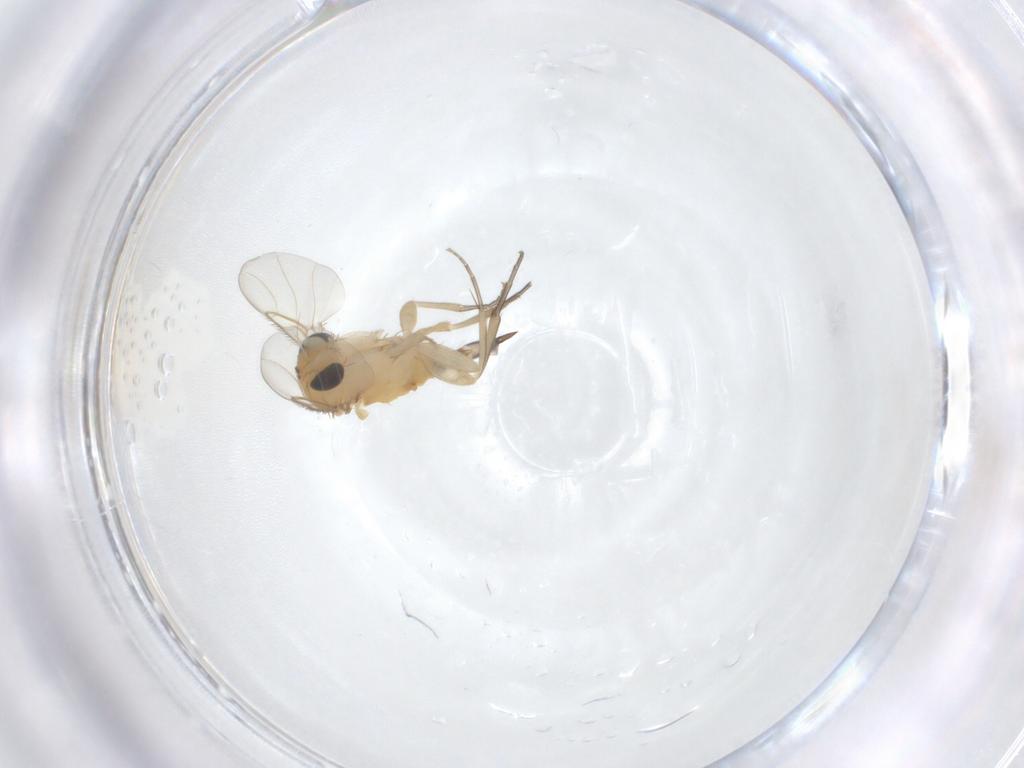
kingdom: Animalia
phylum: Arthropoda
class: Insecta
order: Diptera
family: Phoridae
